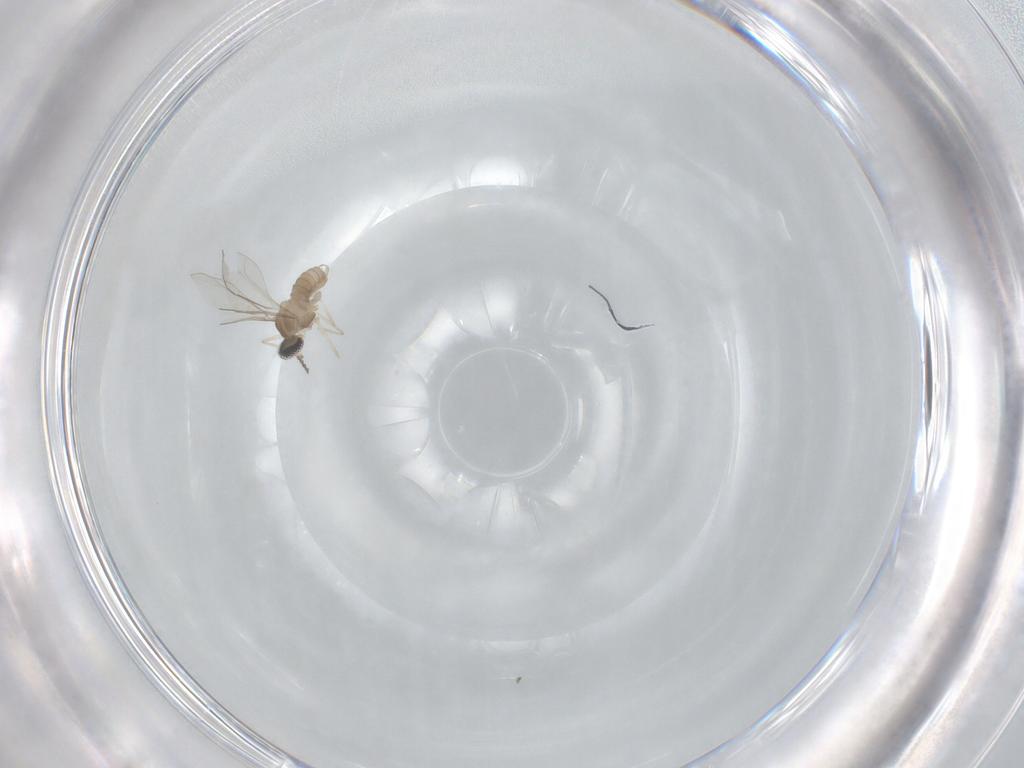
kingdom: Animalia
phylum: Arthropoda
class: Insecta
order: Diptera
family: Cecidomyiidae
